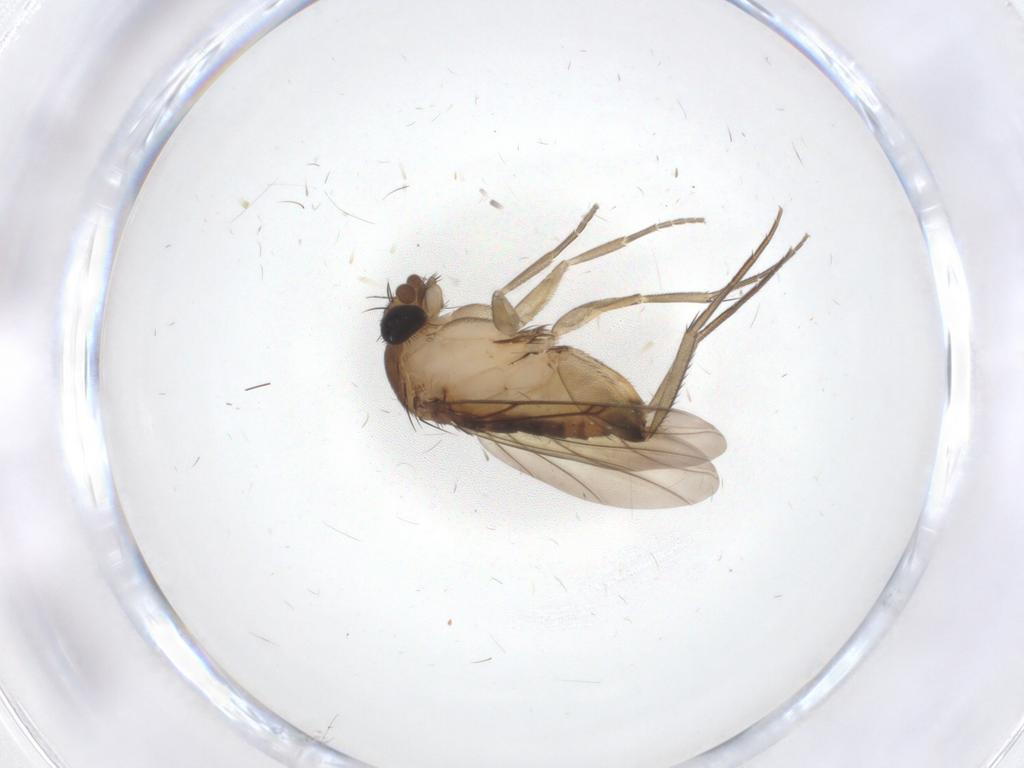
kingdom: Animalia
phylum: Arthropoda
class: Insecta
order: Diptera
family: Phoridae
